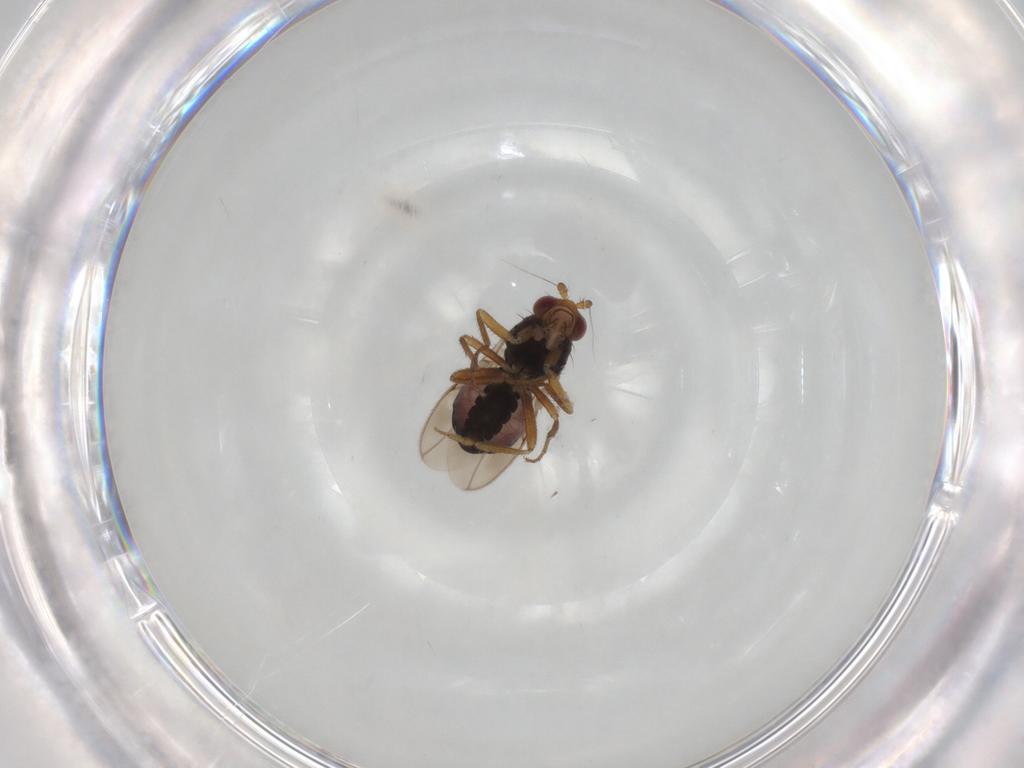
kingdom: Animalia
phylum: Arthropoda
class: Insecta
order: Diptera
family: Sphaeroceridae
